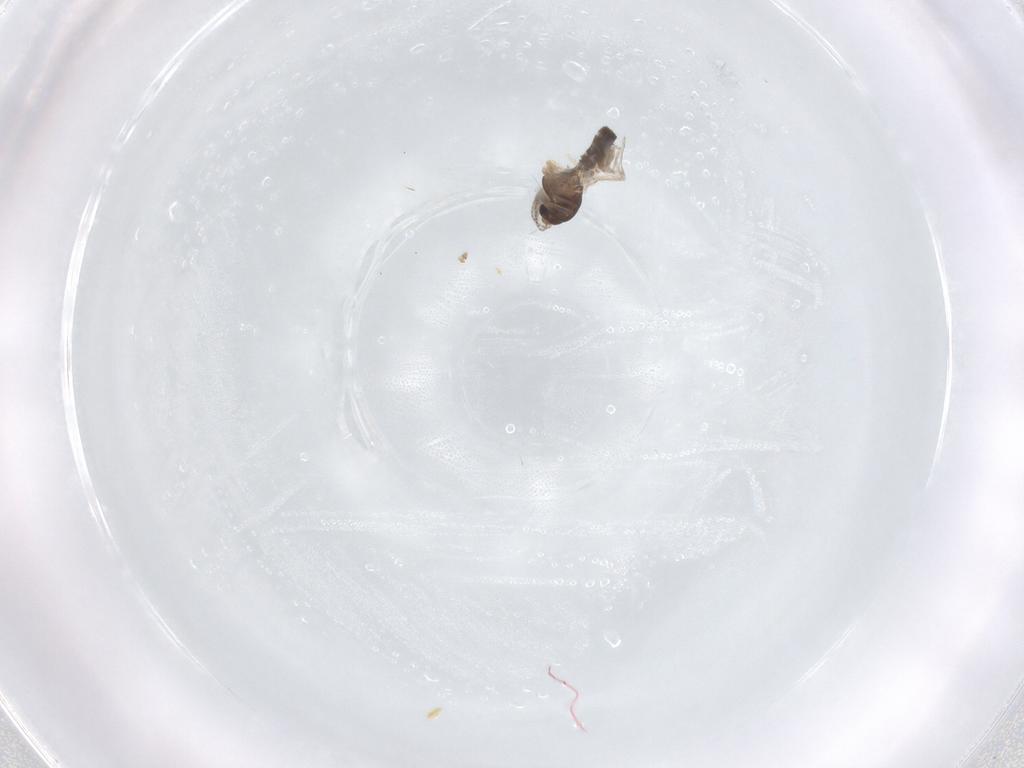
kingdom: Animalia
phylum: Arthropoda
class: Insecta
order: Diptera
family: Chironomidae
